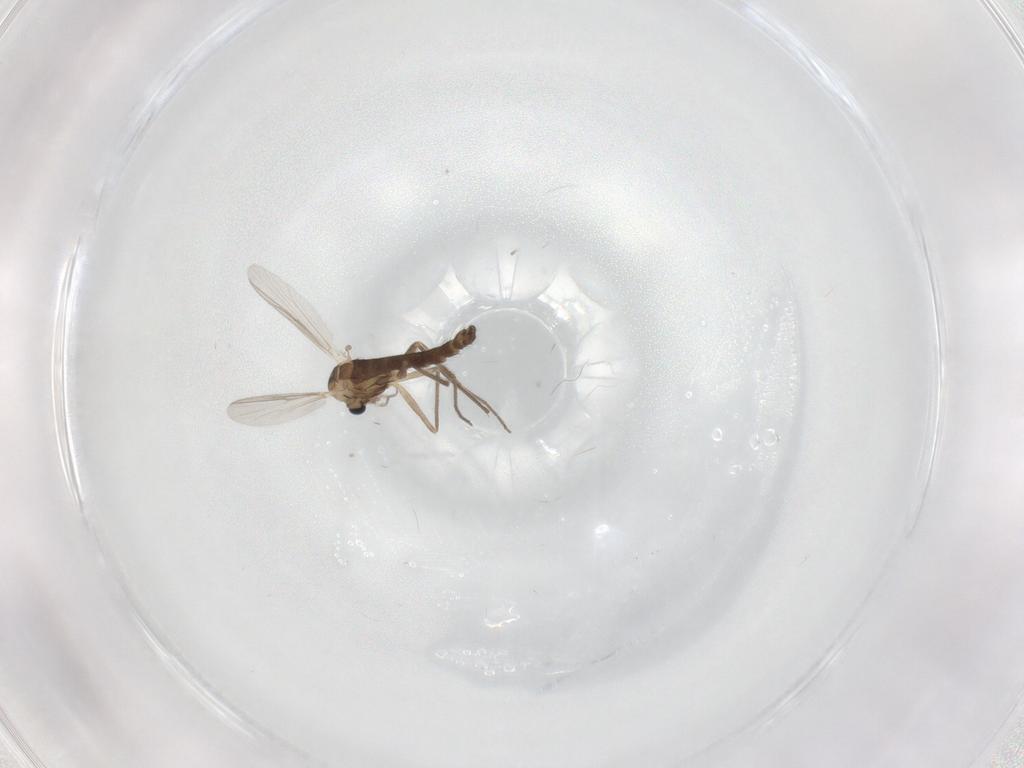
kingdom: Animalia
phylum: Arthropoda
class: Insecta
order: Diptera
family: Chironomidae
